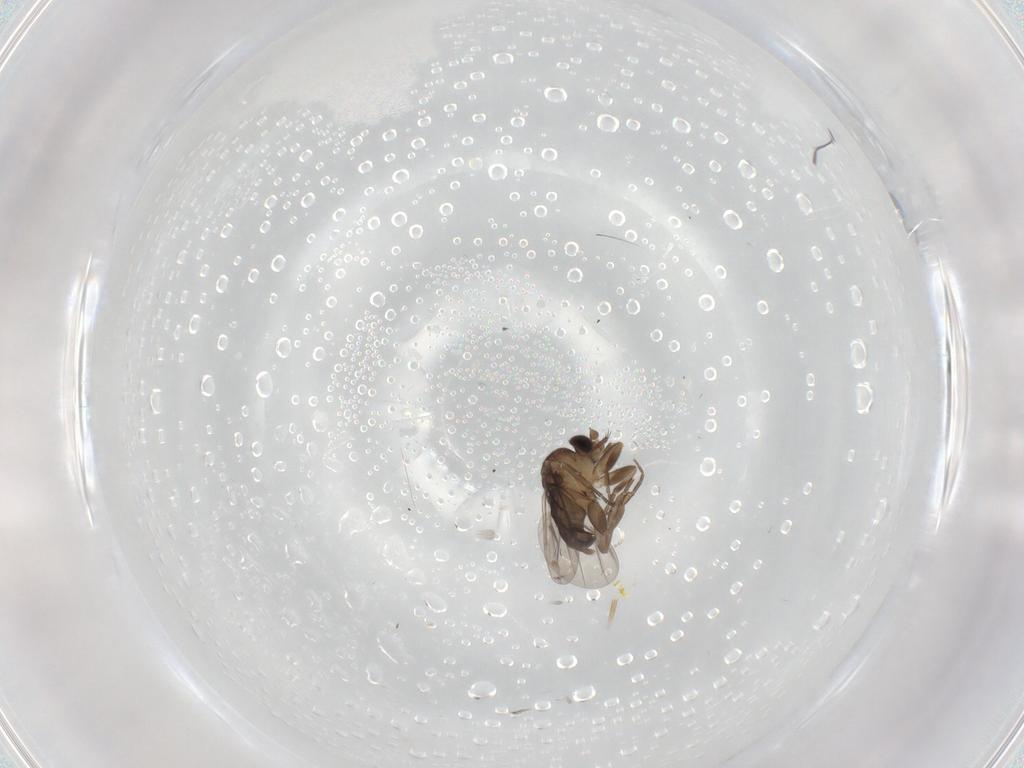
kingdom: Animalia
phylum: Arthropoda
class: Insecta
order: Diptera
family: Cecidomyiidae
